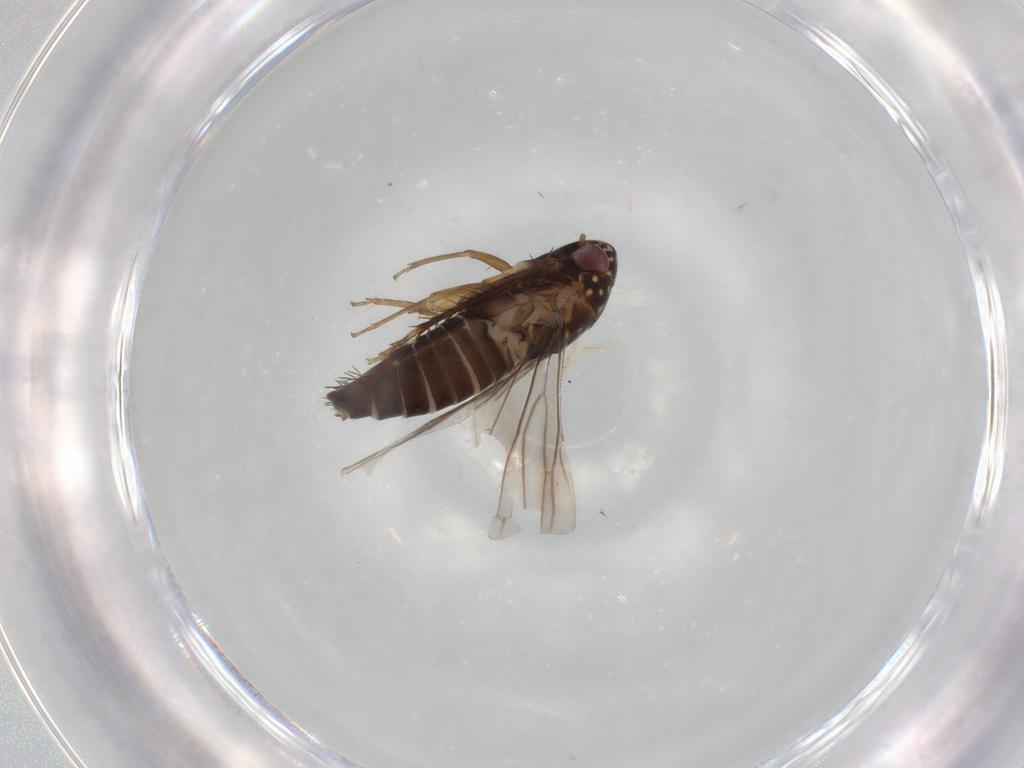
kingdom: Animalia
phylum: Arthropoda
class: Insecta
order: Hemiptera
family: Cicadellidae
